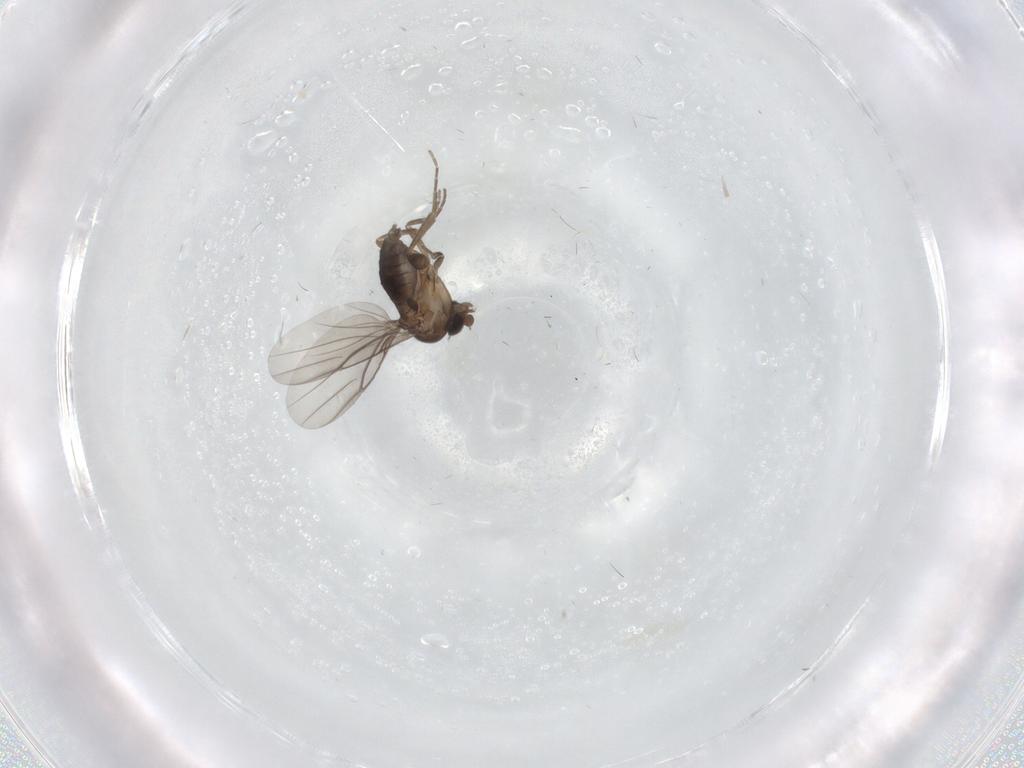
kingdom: Animalia
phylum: Arthropoda
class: Insecta
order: Diptera
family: Phoridae
